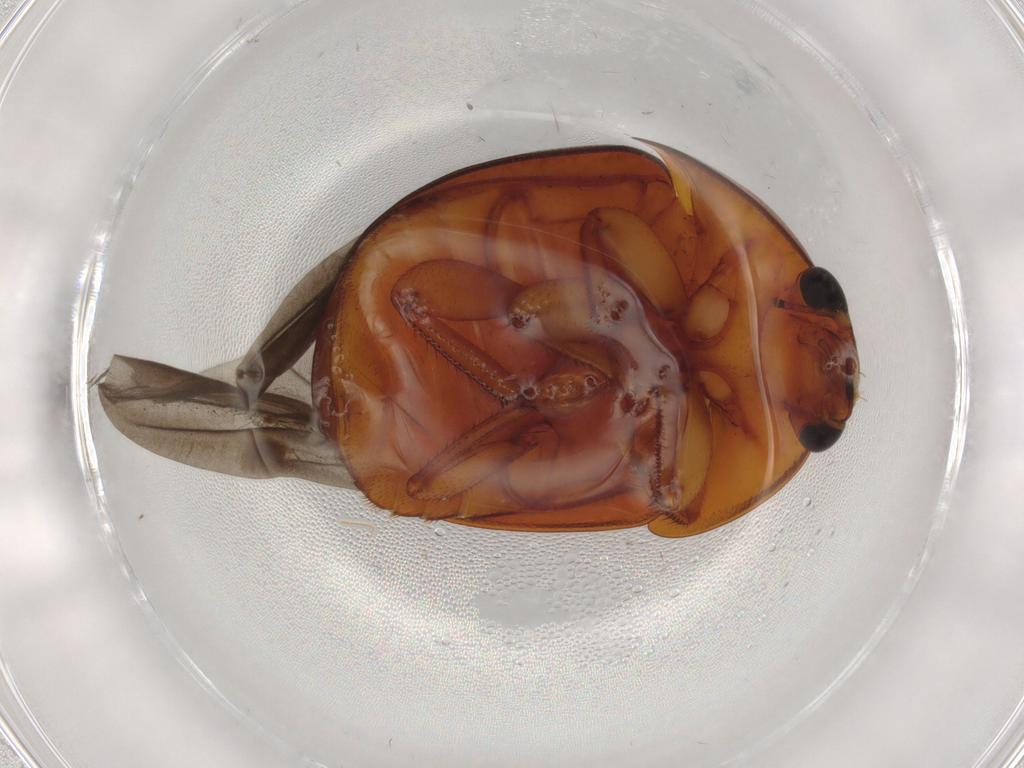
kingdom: Animalia
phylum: Arthropoda
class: Insecta
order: Coleoptera
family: Nitidulidae
